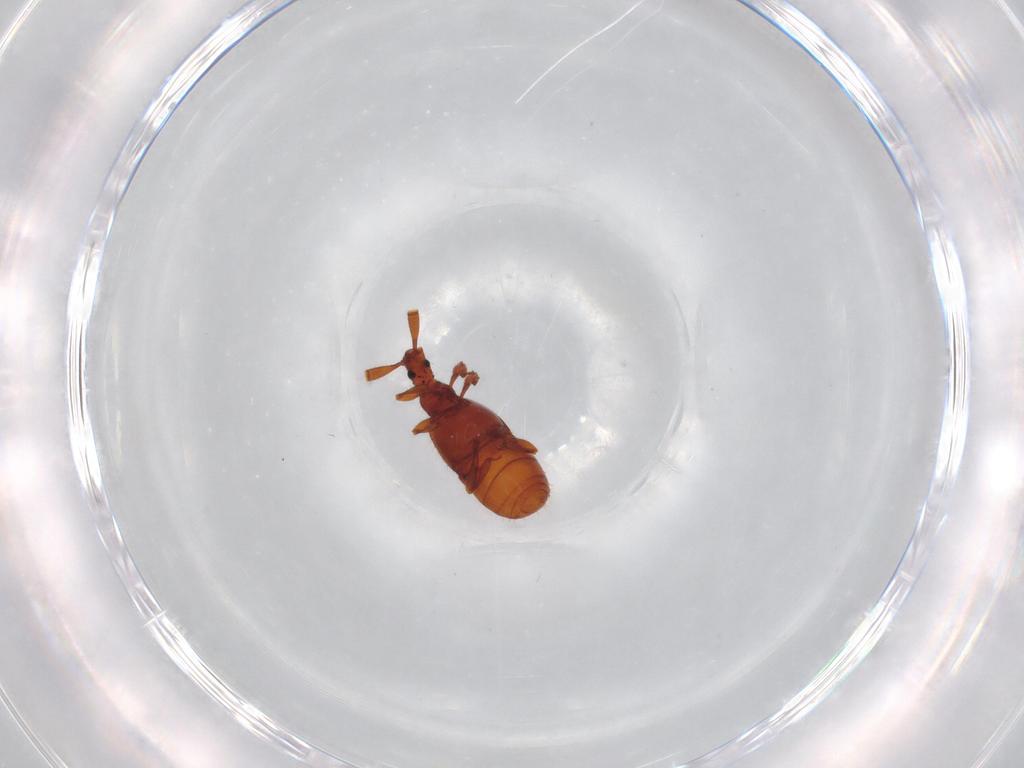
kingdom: Animalia
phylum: Arthropoda
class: Insecta
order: Coleoptera
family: Staphylinidae
